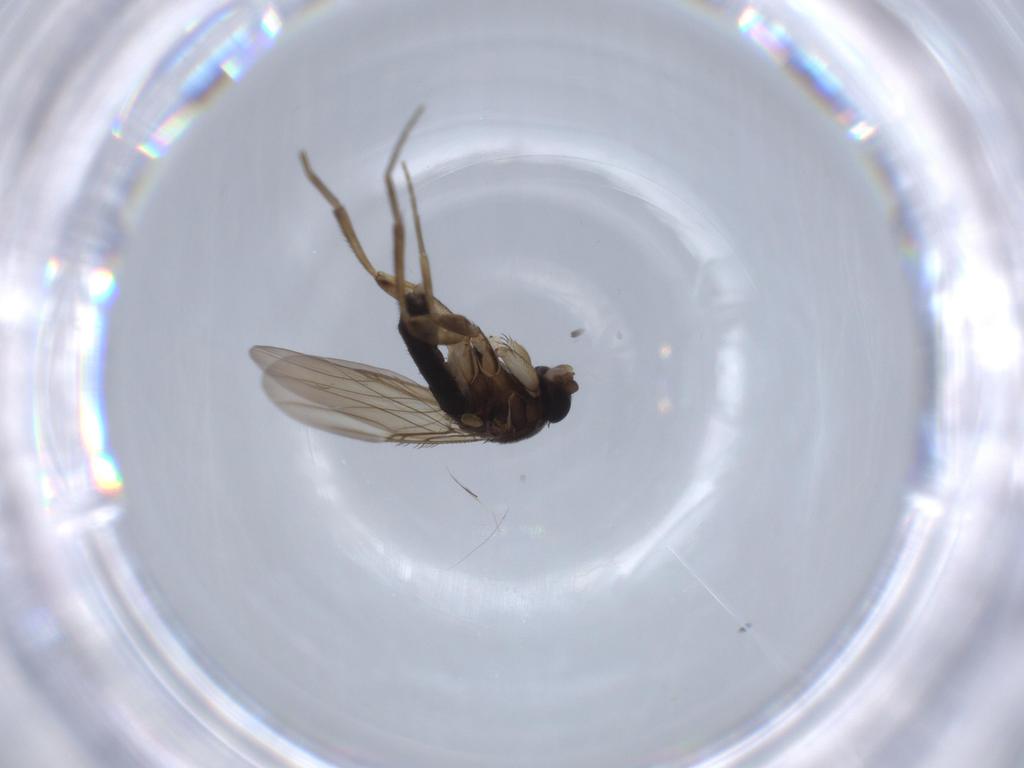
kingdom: Animalia
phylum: Arthropoda
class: Insecta
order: Diptera
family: Phoridae
